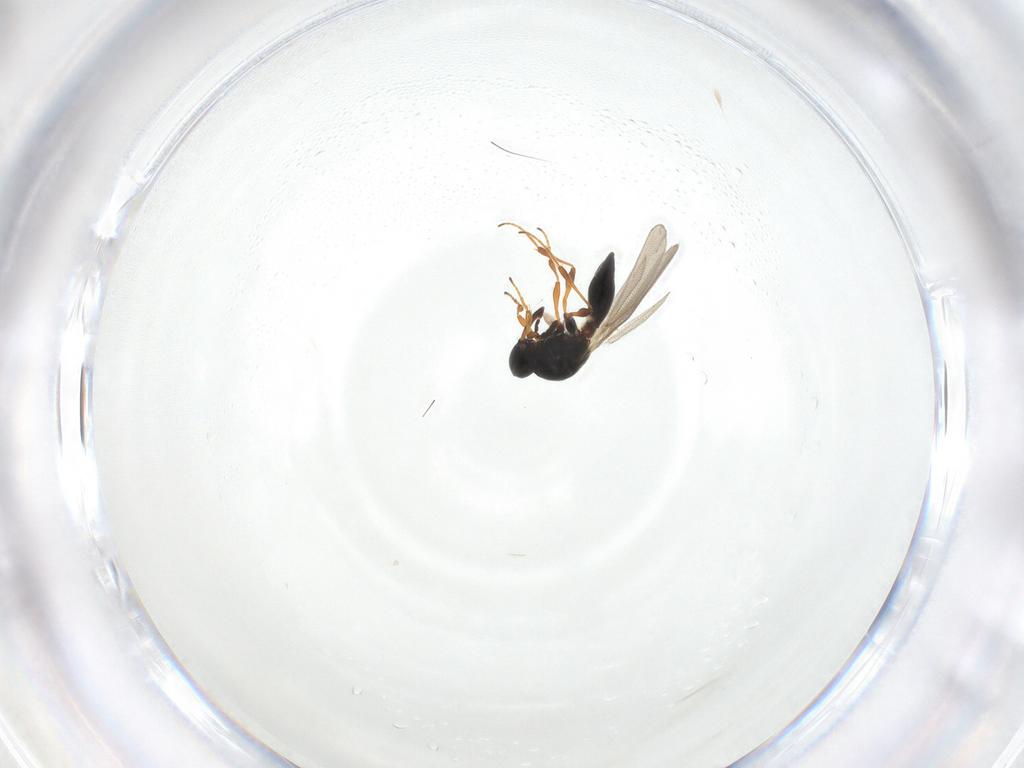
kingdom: Animalia
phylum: Arthropoda
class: Insecta
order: Hymenoptera
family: Platygastridae
